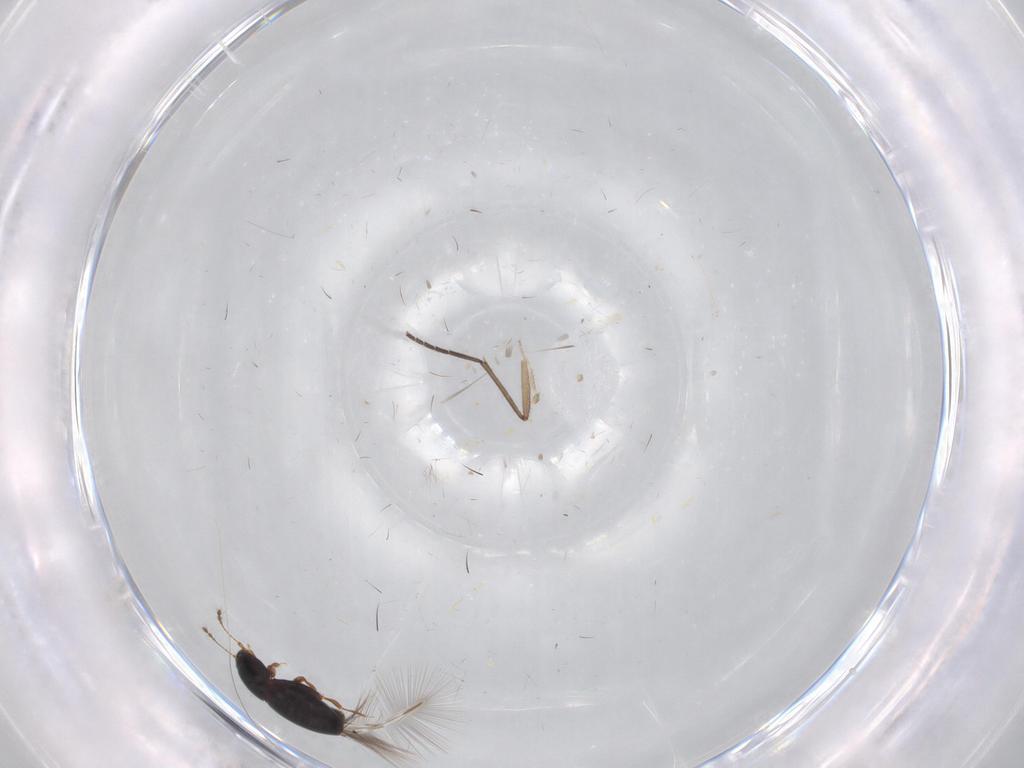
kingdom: Animalia
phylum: Arthropoda
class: Insecta
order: Coleoptera
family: Ptiliidae
